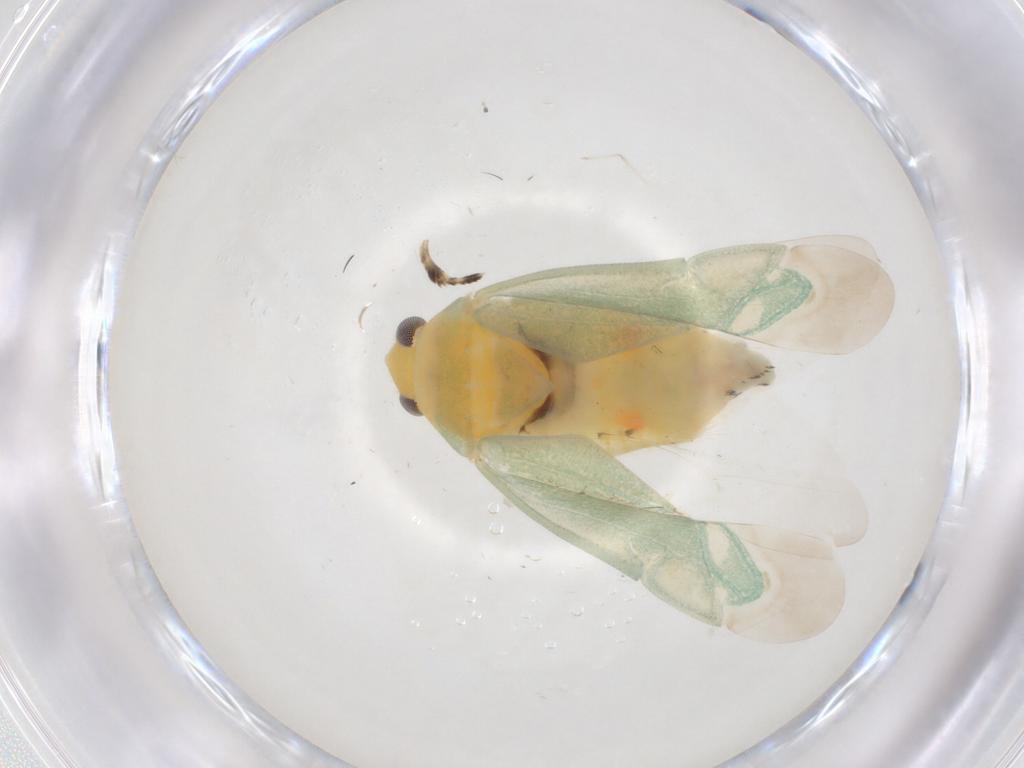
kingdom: Animalia
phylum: Arthropoda
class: Insecta
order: Hemiptera
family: Miridae
